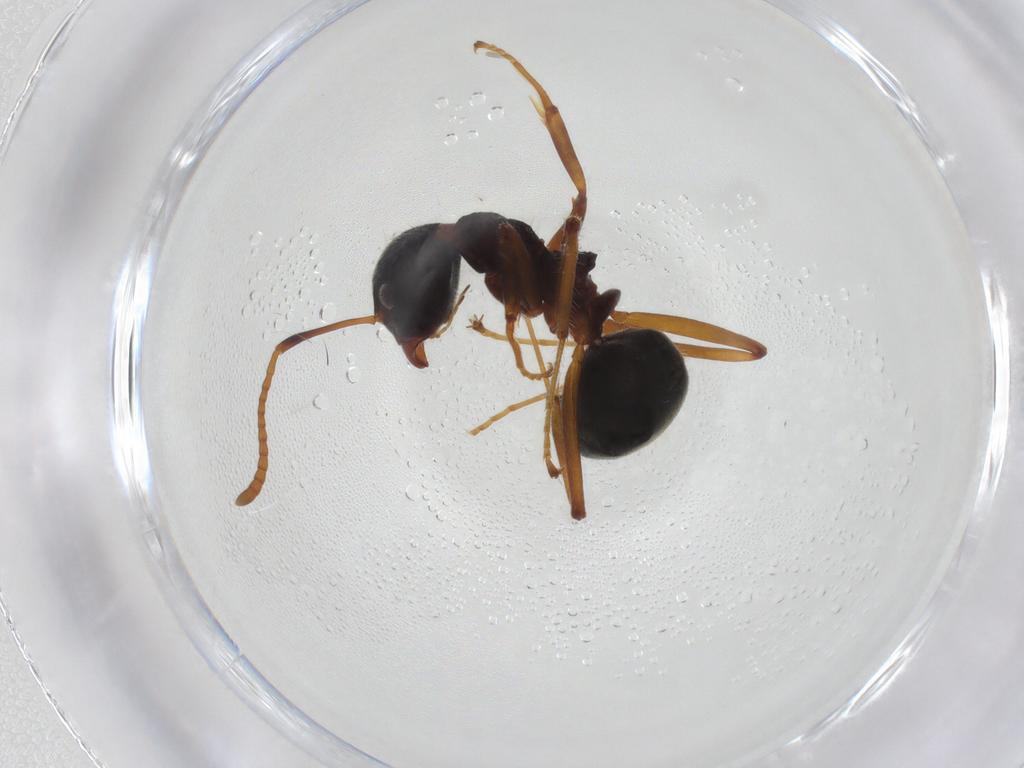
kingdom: Animalia
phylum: Arthropoda
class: Insecta
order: Hymenoptera
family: Formicidae
